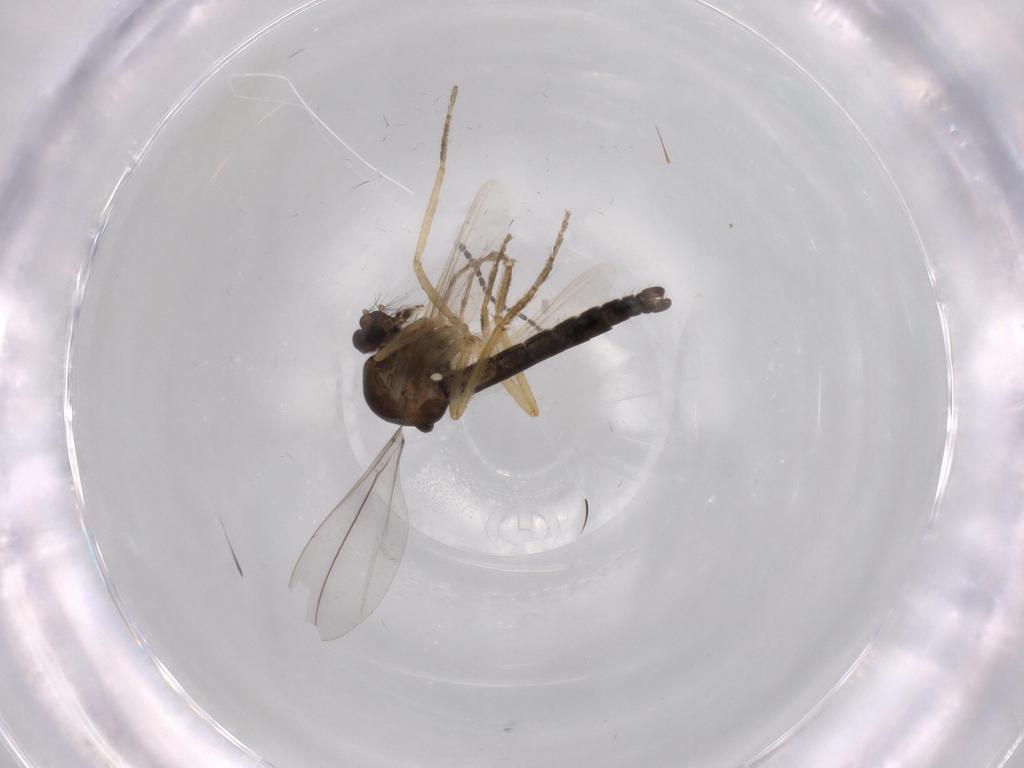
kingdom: Animalia
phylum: Arthropoda
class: Insecta
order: Diptera
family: Ceratopogonidae
